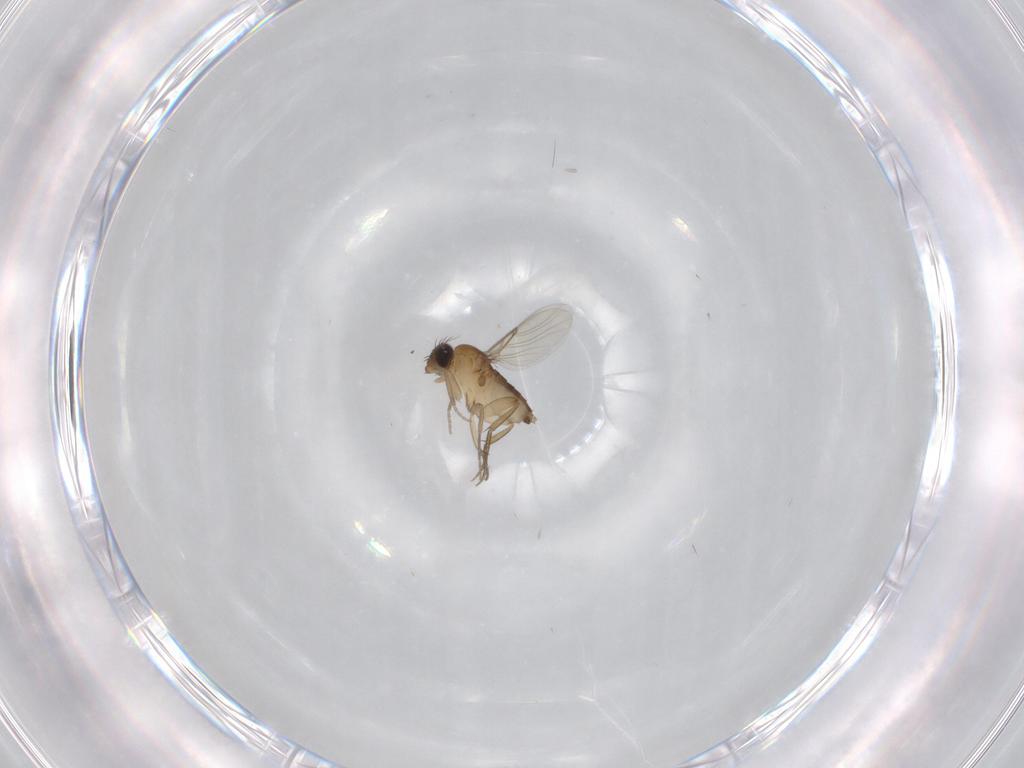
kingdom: Animalia
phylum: Arthropoda
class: Insecta
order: Diptera
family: Phoridae
